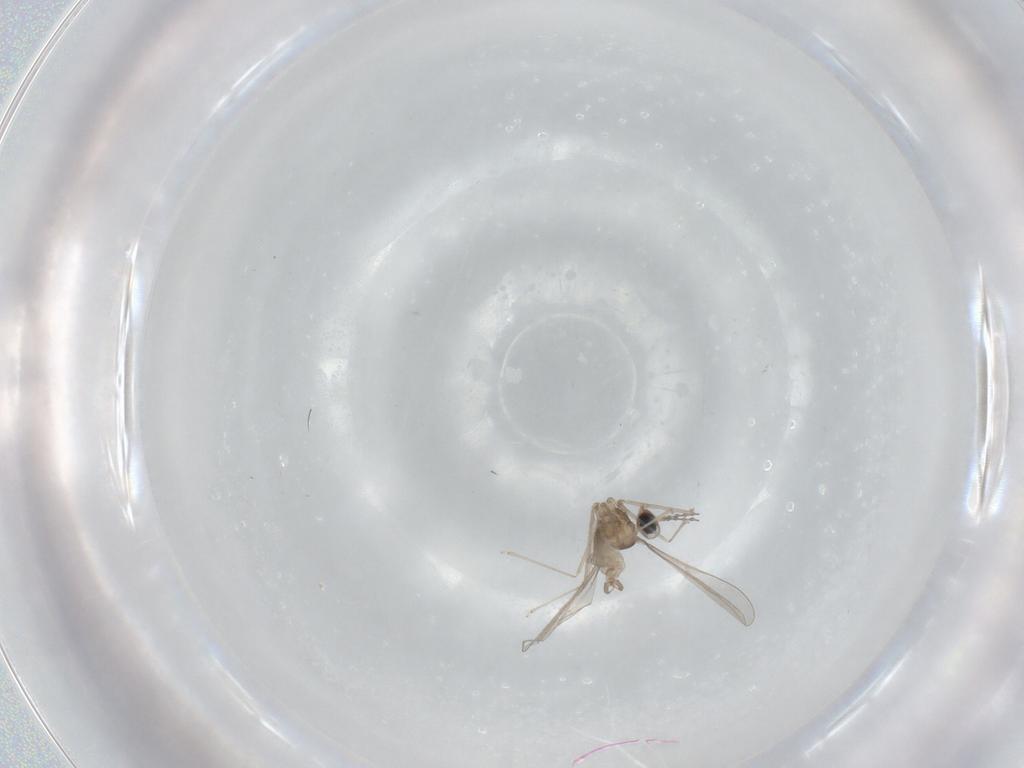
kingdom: Animalia
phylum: Arthropoda
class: Insecta
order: Diptera
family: Cecidomyiidae
